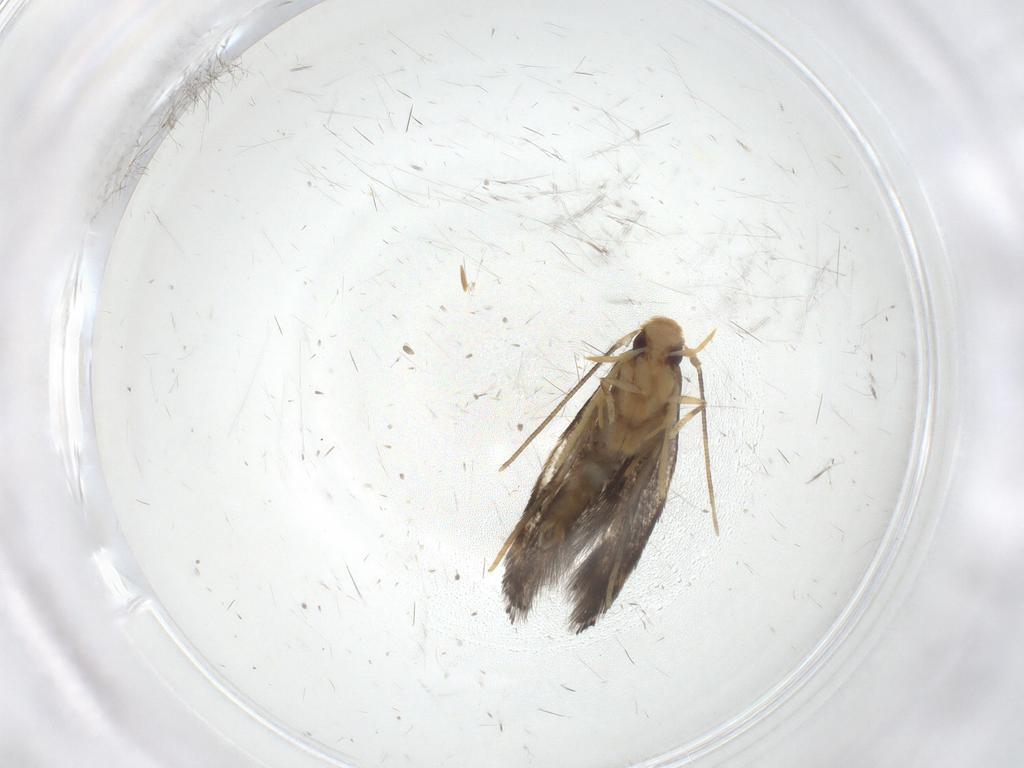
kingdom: Animalia
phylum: Arthropoda
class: Insecta
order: Lepidoptera
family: Gelechiidae
